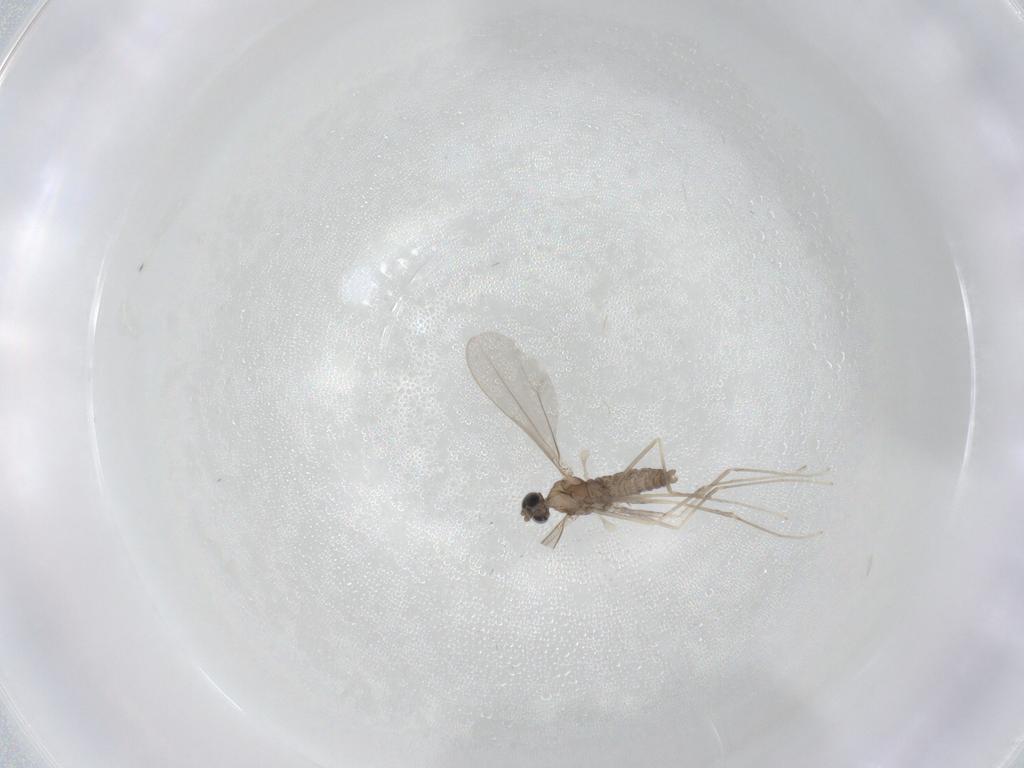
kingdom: Animalia
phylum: Arthropoda
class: Insecta
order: Diptera
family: Cecidomyiidae
